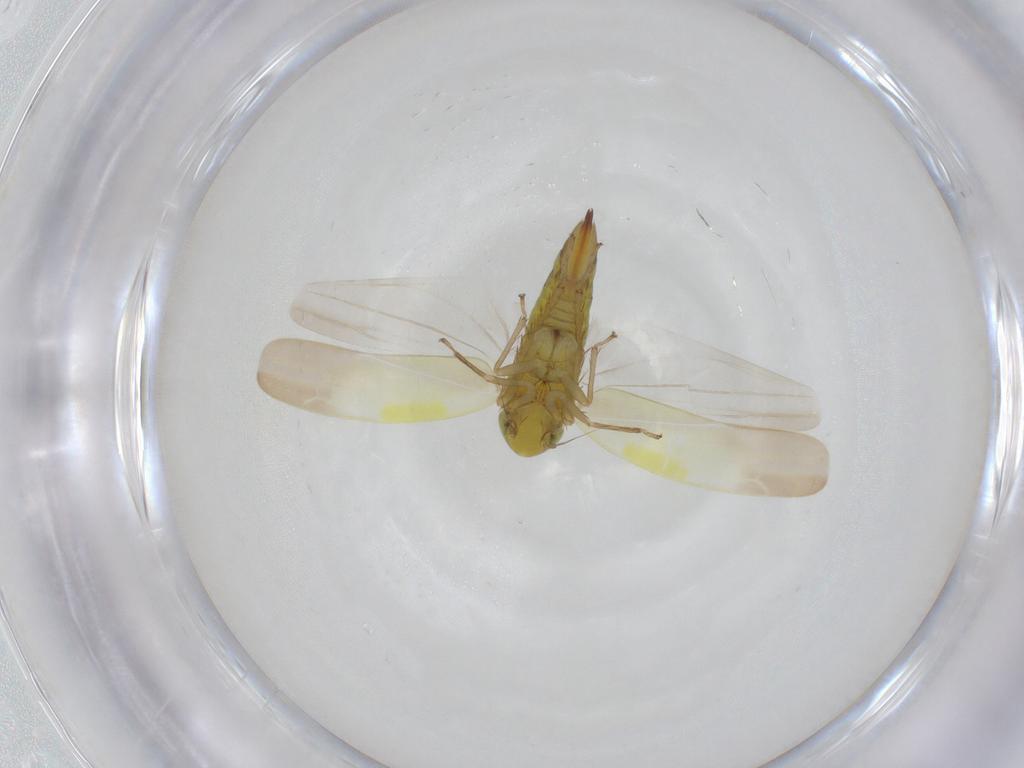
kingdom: Animalia
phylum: Arthropoda
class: Insecta
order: Hemiptera
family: Cicadellidae
